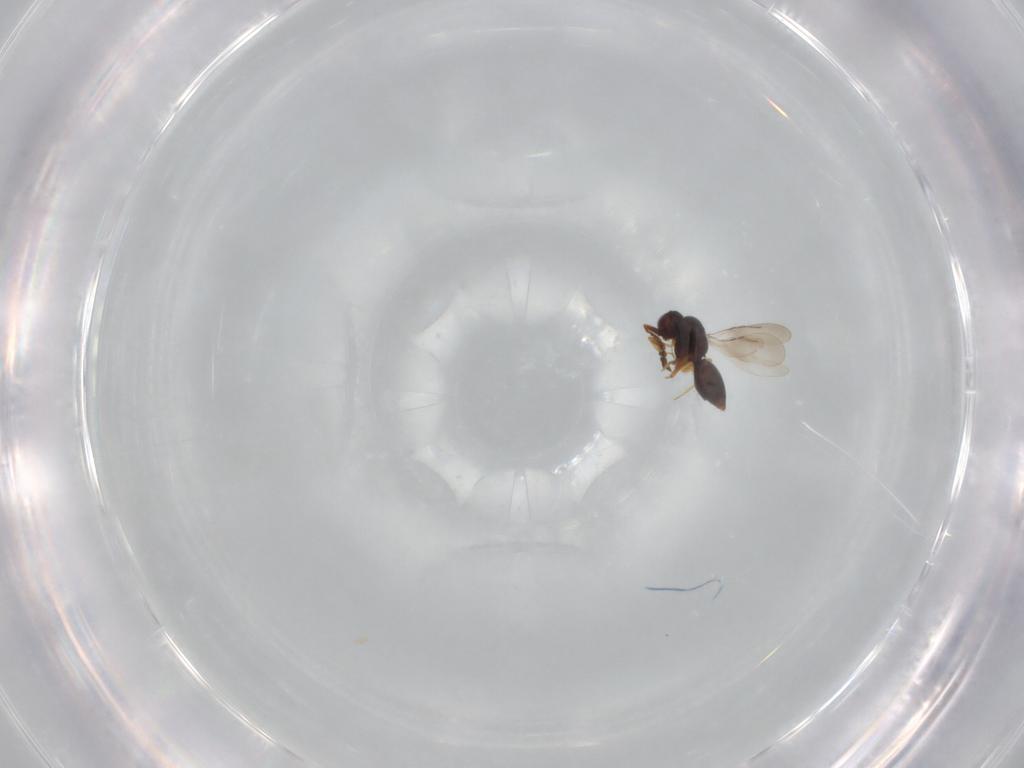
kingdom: Animalia
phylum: Arthropoda
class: Insecta
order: Hymenoptera
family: Ceraphronidae
